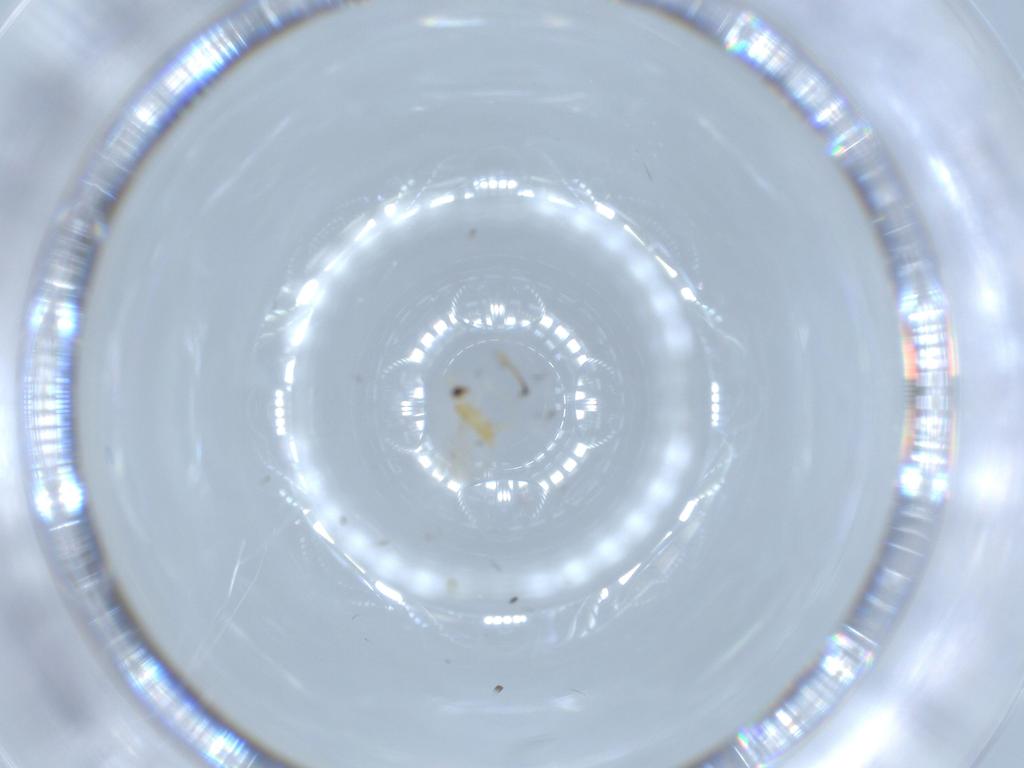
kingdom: Animalia
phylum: Arthropoda
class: Insecta
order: Hymenoptera
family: Mymaridae
